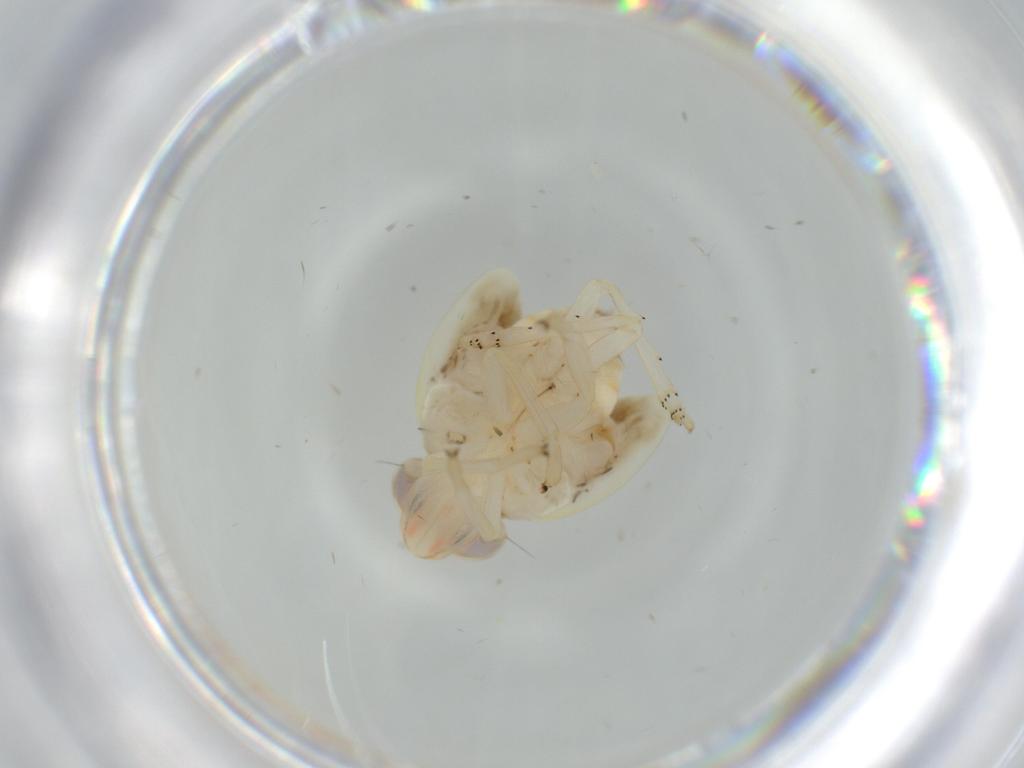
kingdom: Animalia
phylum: Arthropoda
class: Insecta
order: Hemiptera
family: Nogodinidae
